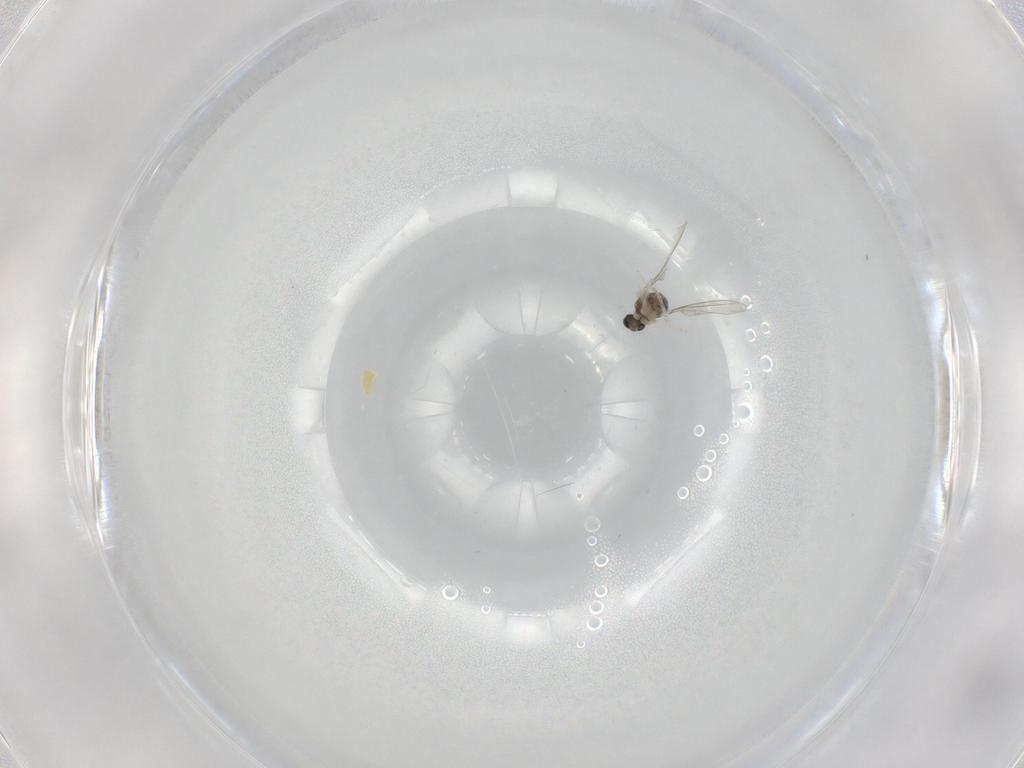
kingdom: Animalia
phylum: Arthropoda
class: Insecta
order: Diptera
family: Cecidomyiidae
